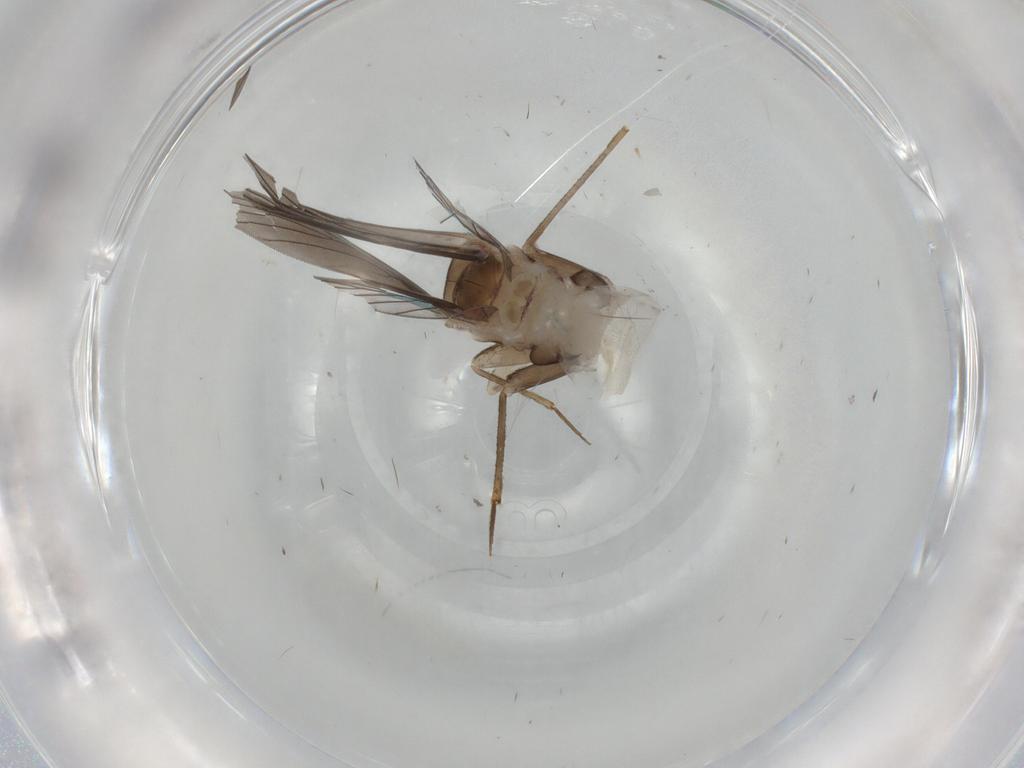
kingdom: Animalia
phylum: Arthropoda
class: Insecta
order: Psocodea
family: Lepidopsocidae
